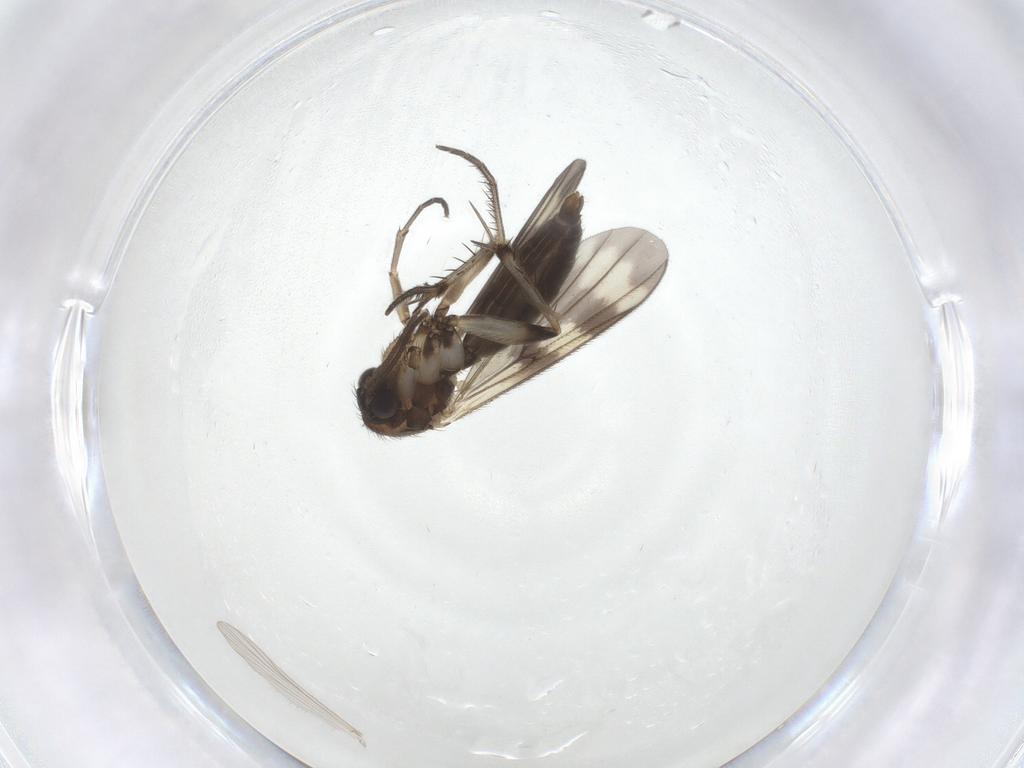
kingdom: Animalia
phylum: Arthropoda
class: Insecta
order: Diptera
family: Mycetophilidae
